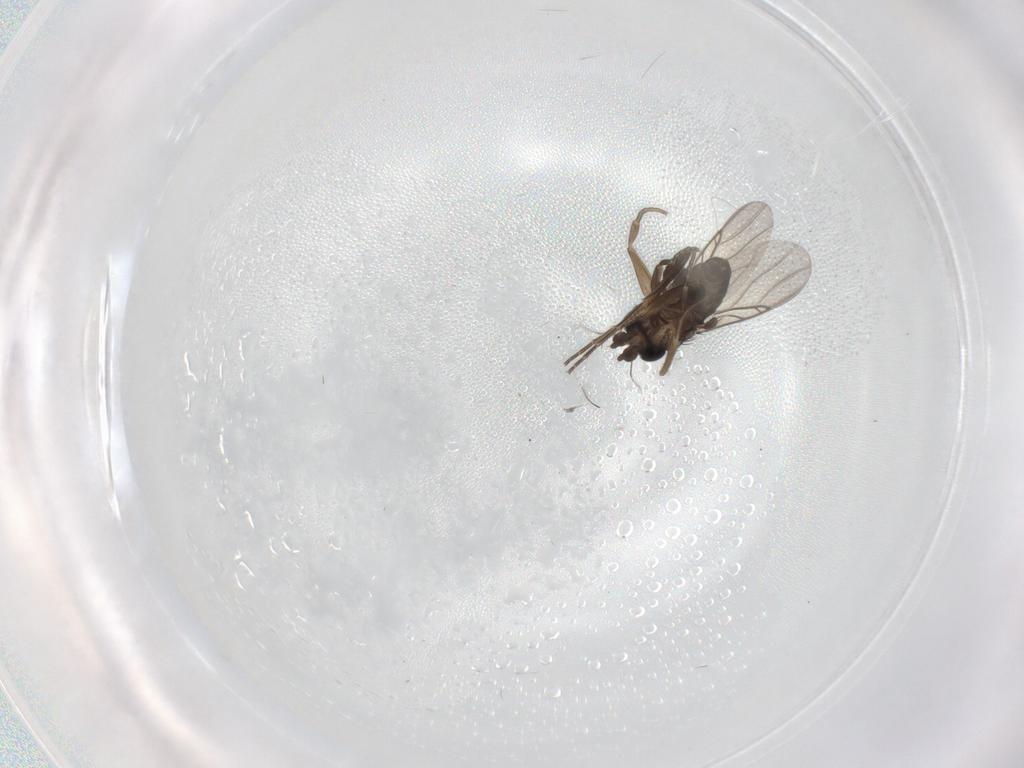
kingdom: Animalia
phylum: Arthropoda
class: Insecta
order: Diptera
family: Phoridae
